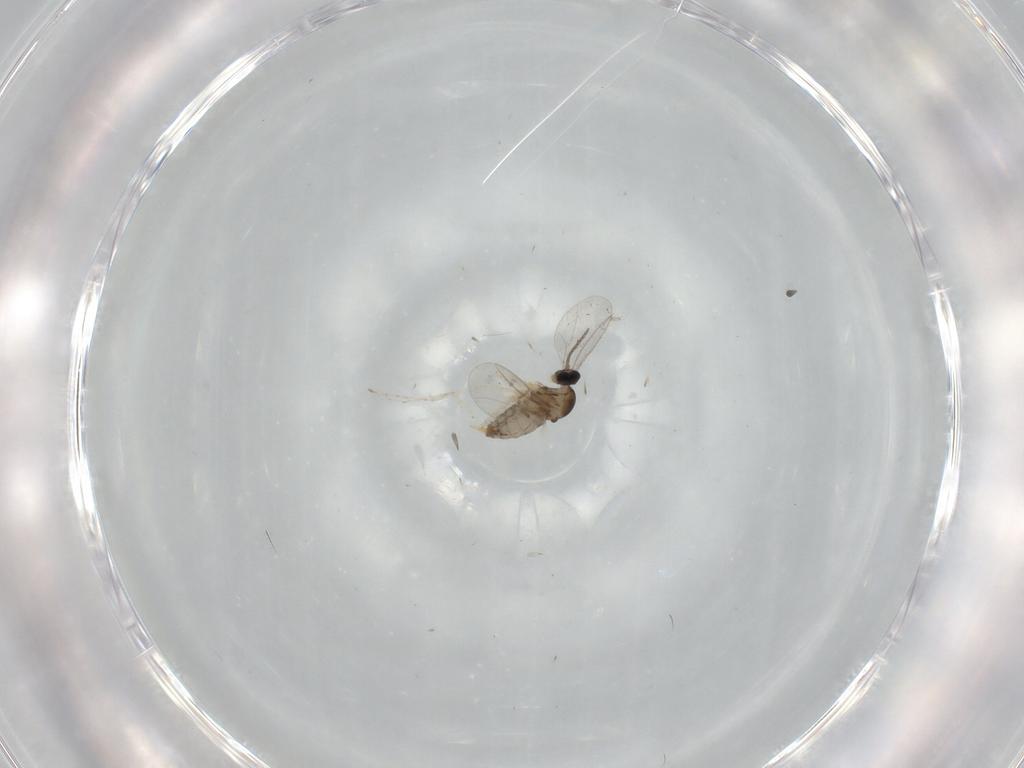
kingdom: Animalia
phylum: Arthropoda
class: Insecta
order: Diptera
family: Cecidomyiidae
